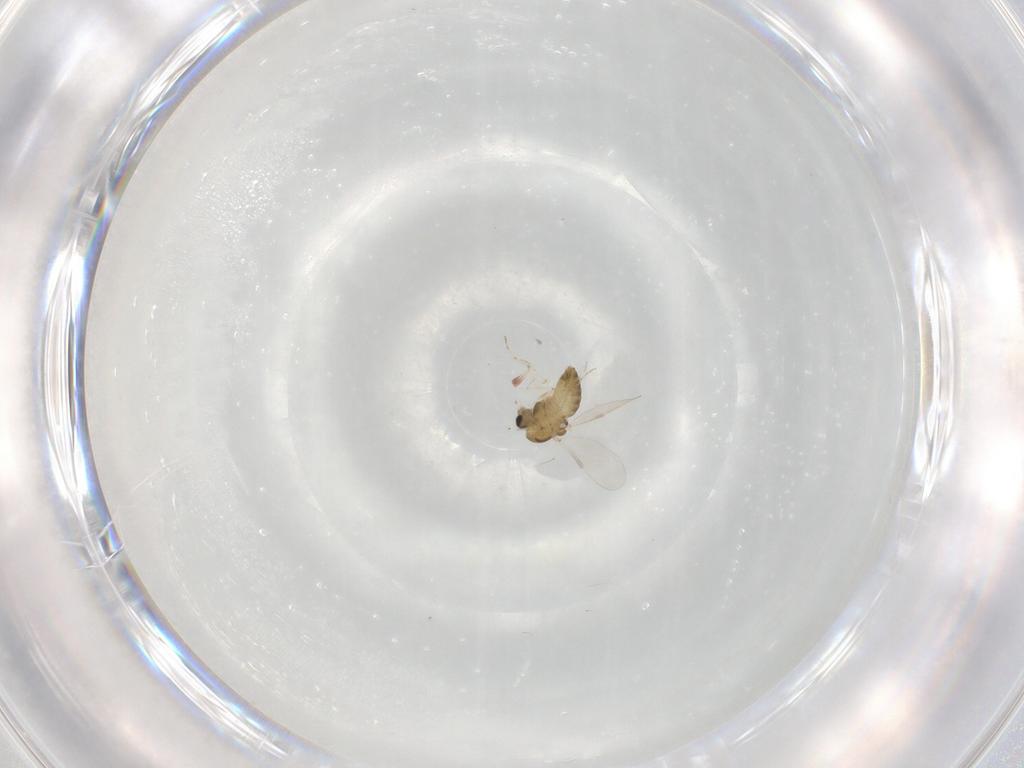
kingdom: Animalia
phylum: Arthropoda
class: Insecta
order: Diptera
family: Chironomidae
